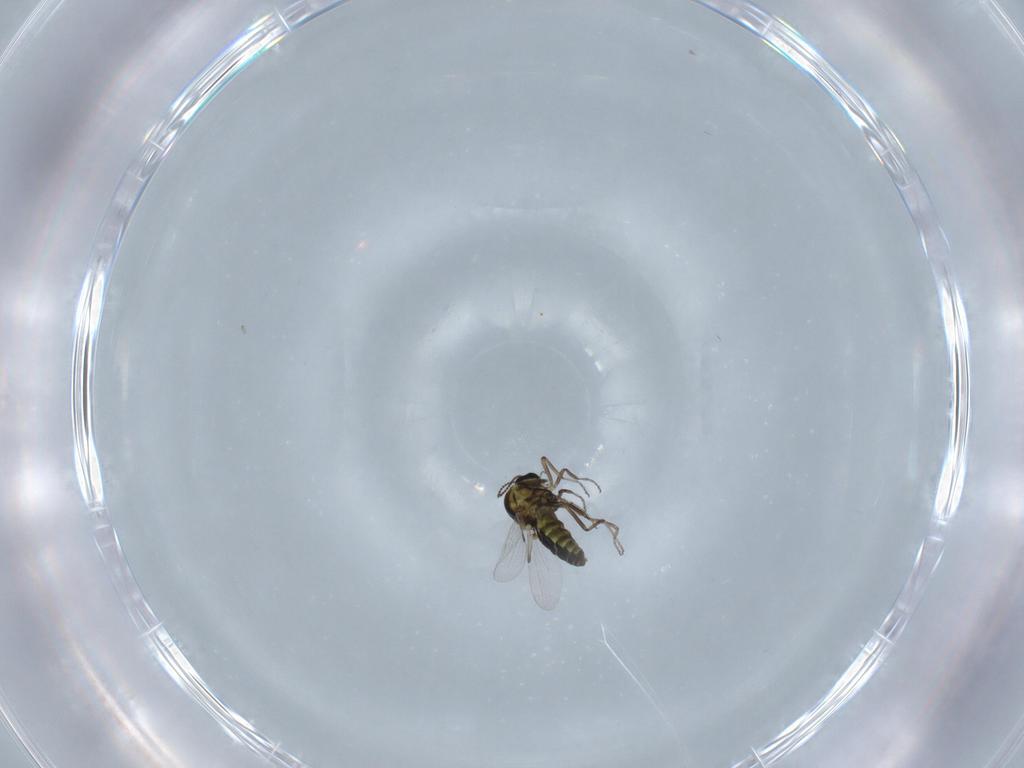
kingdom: Animalia
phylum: Arthropoda
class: Insecta
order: Diptera
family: Ceratopogonidae
